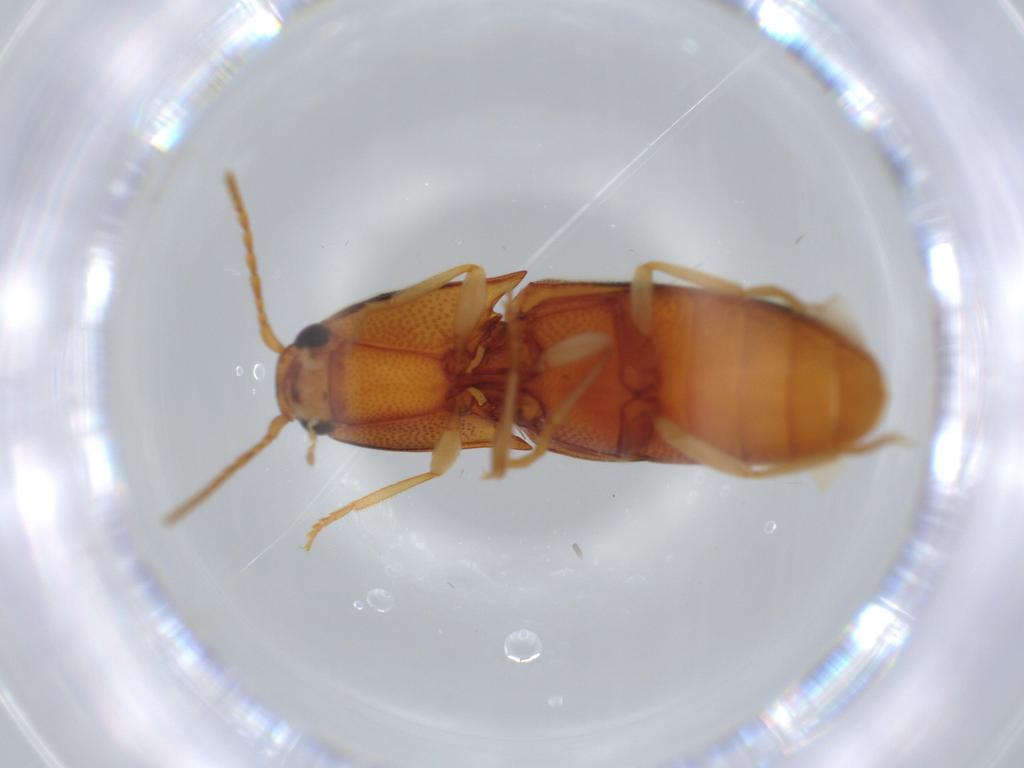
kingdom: Animalia
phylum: Arthropoda
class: Insecta
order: Coleoptera
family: Elateridae
